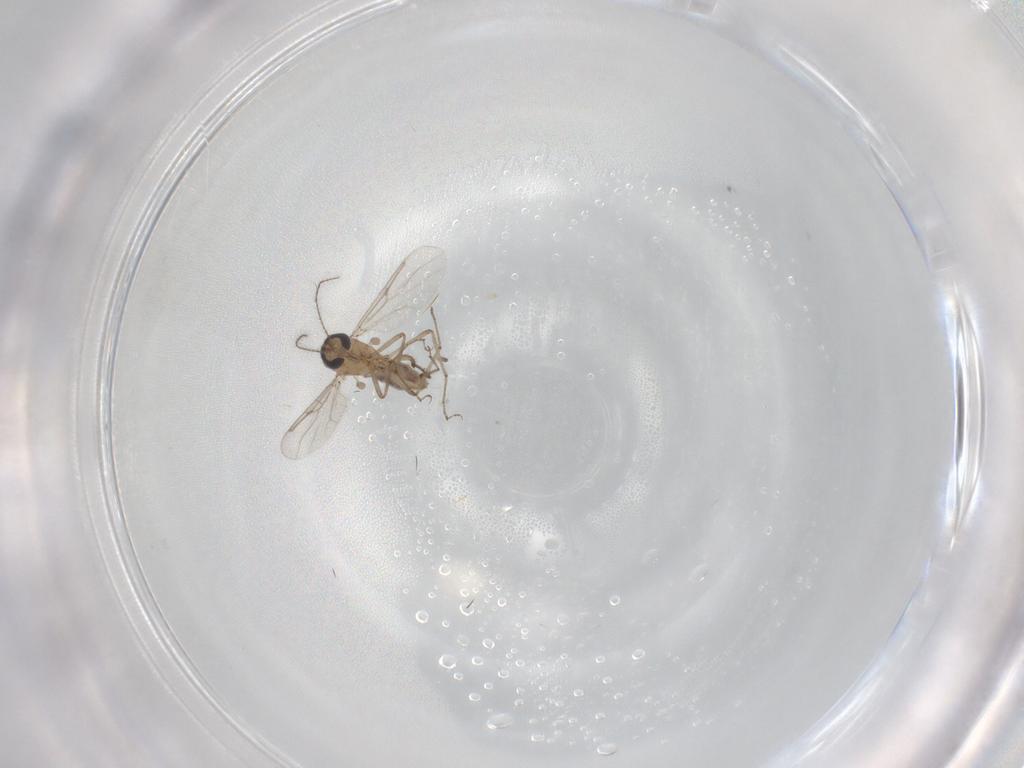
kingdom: Animalia
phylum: Arthropoda
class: Insecta
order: Diptera
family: Ceratopogonidae
